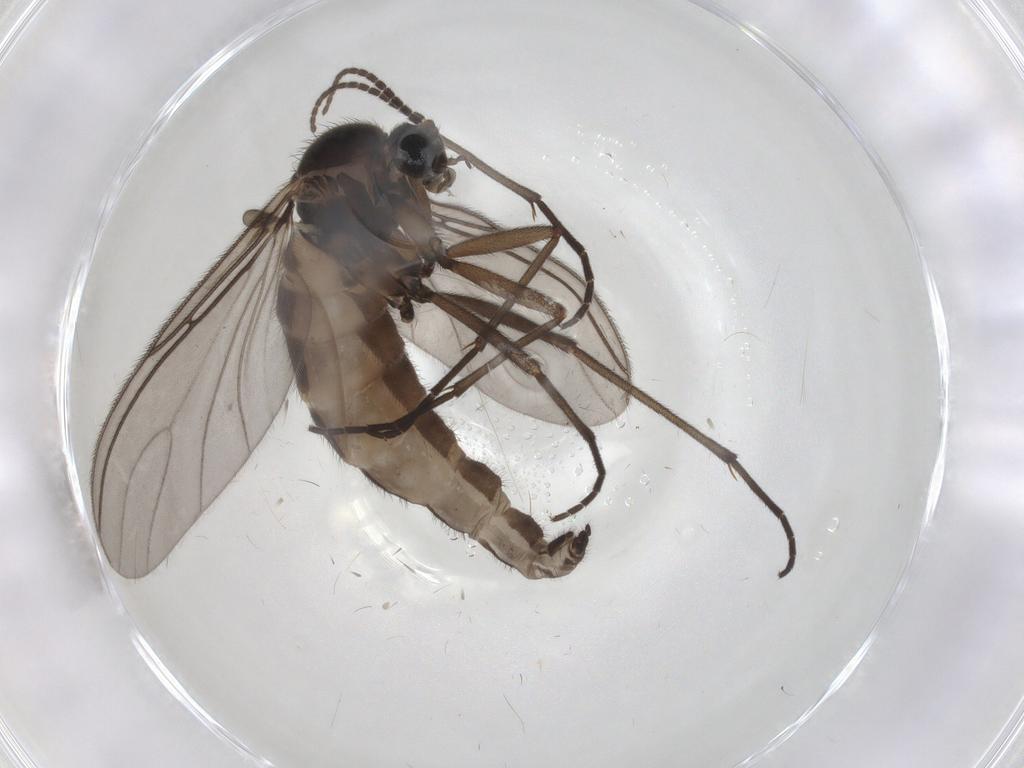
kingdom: Animalia
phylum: Arthropoda
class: Insecta
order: Diptera
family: Sciaridae
